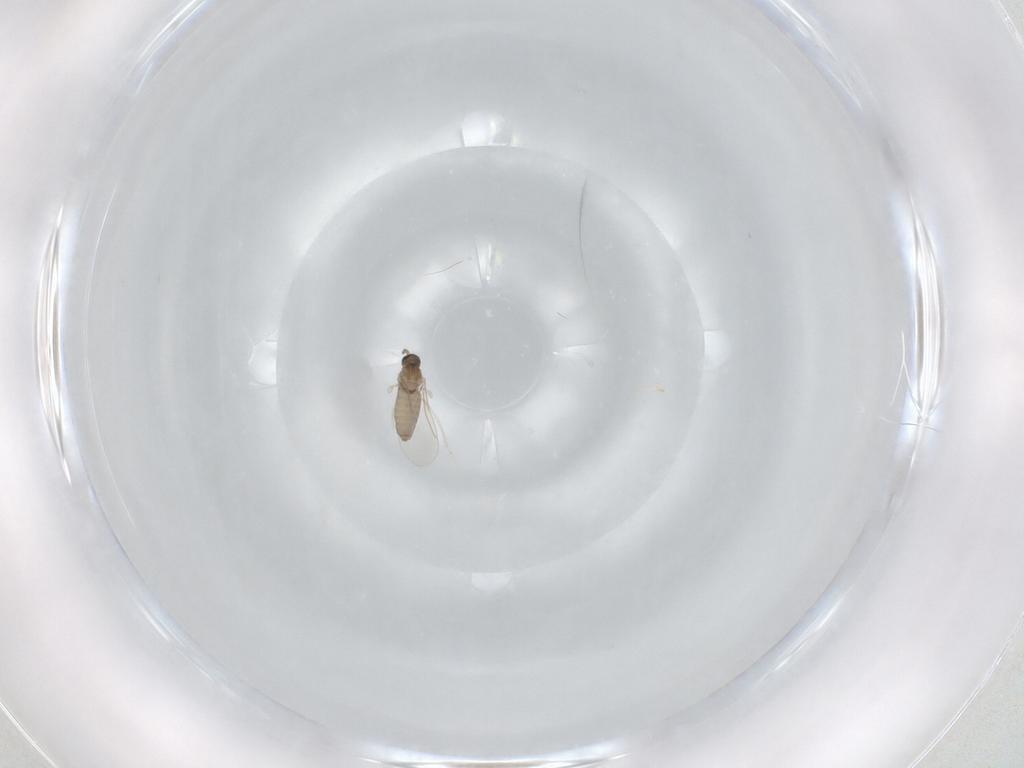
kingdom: Animalia
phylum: Arthropoda
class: Insecta
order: Diptera
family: Cecidomyiidae
